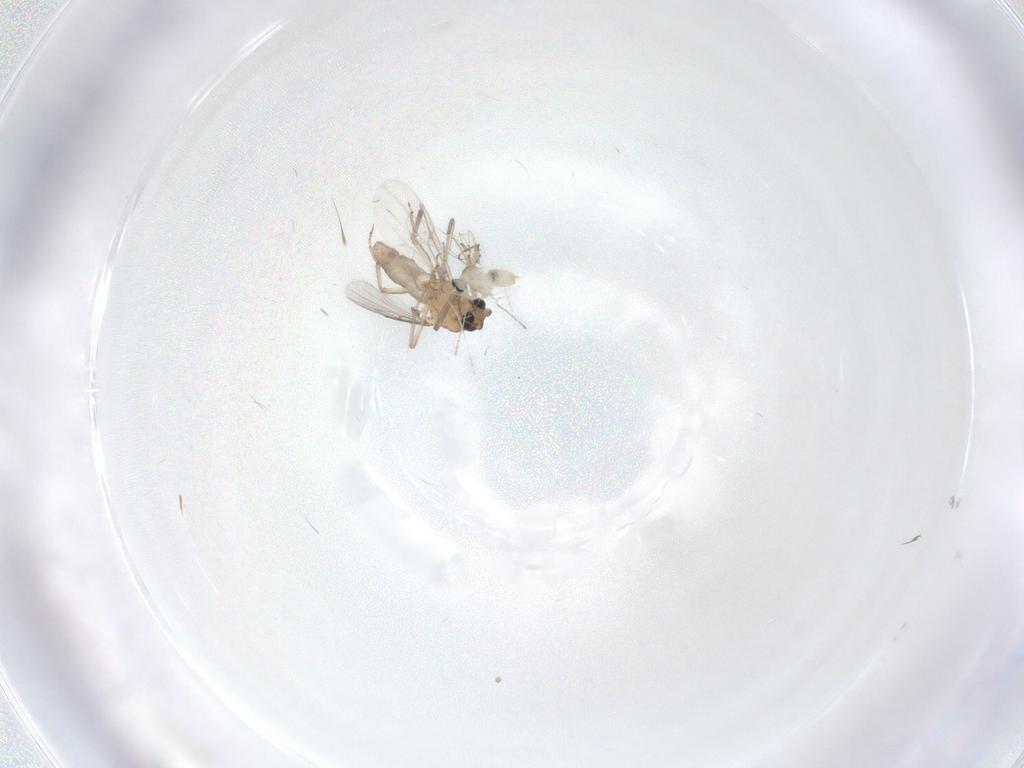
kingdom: Animalia
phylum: Arthropoda
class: Insecta
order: Diptera
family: Cecidomyiidae
